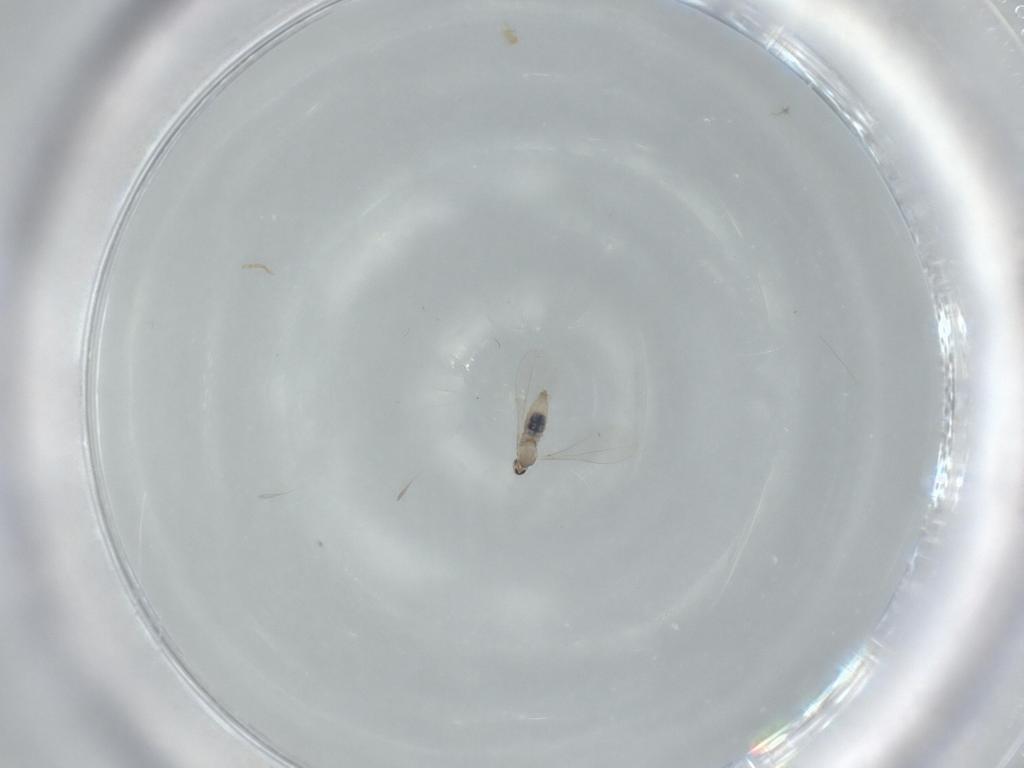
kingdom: Animalia
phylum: Arthropoda
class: Insecta
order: Diptera
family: Cecidomyiidae
